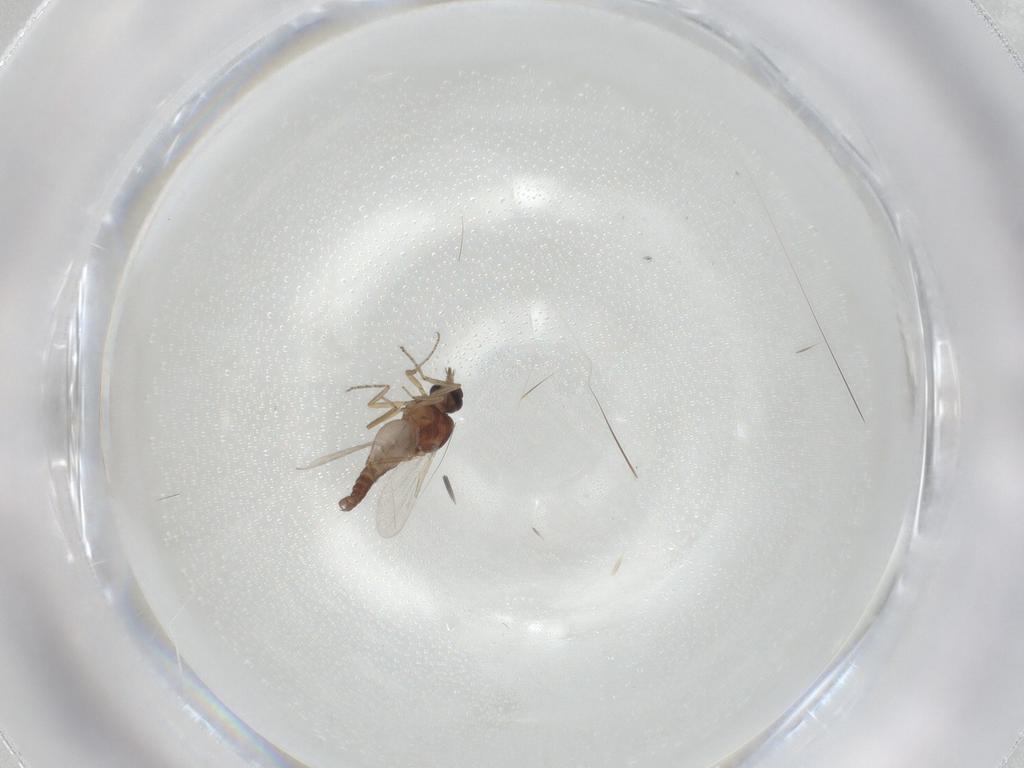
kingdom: Animalia
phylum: Arthropoda
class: Insecta
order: Diptera
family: Ceratopogonidae
